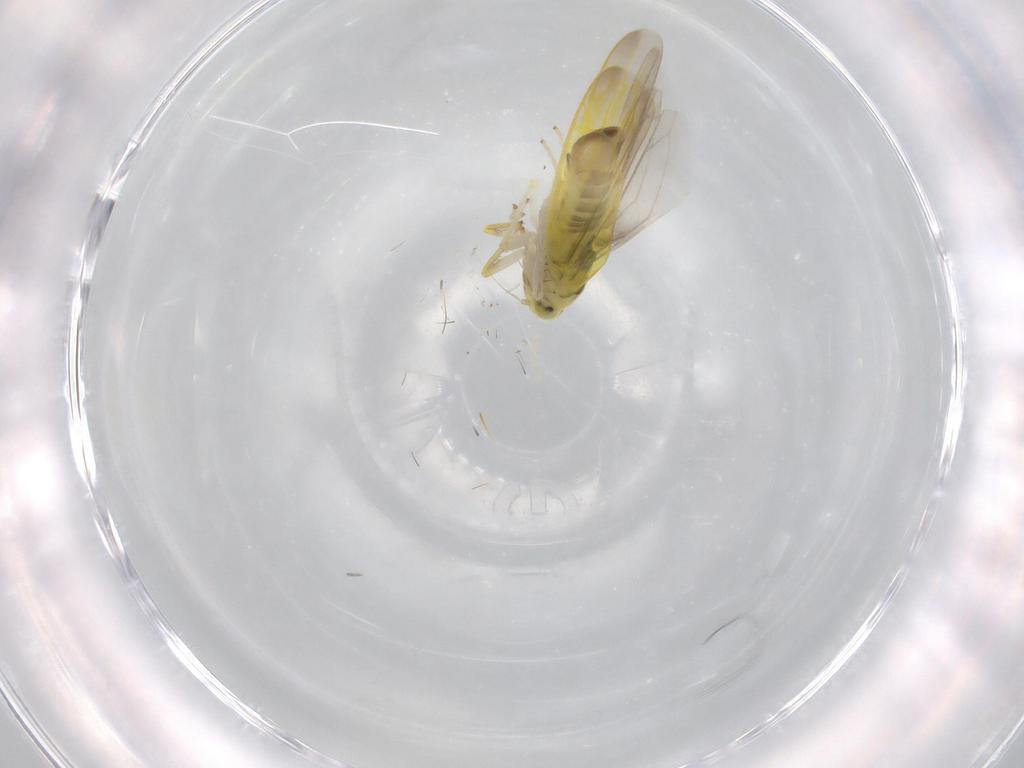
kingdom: Animalia
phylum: Arthropoda
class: Insecta
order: Hemiptera
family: Cicadellidae
